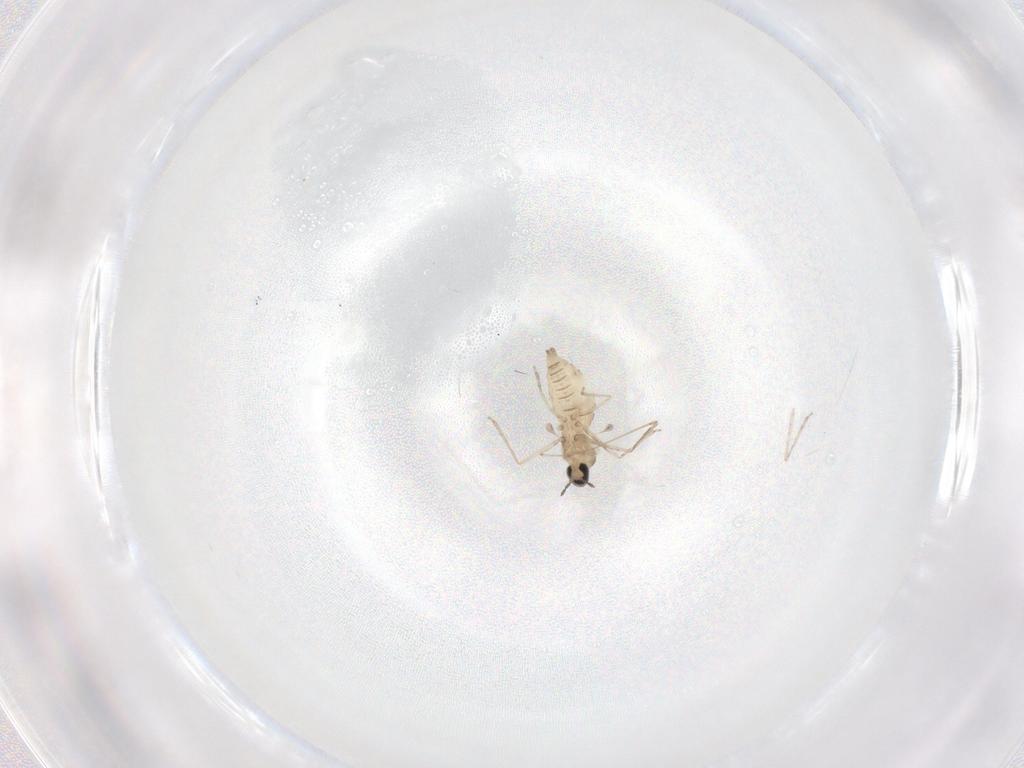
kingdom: Animalia
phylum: Arthropoda
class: Insecta
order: Diptera
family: Cecidomyiidae
